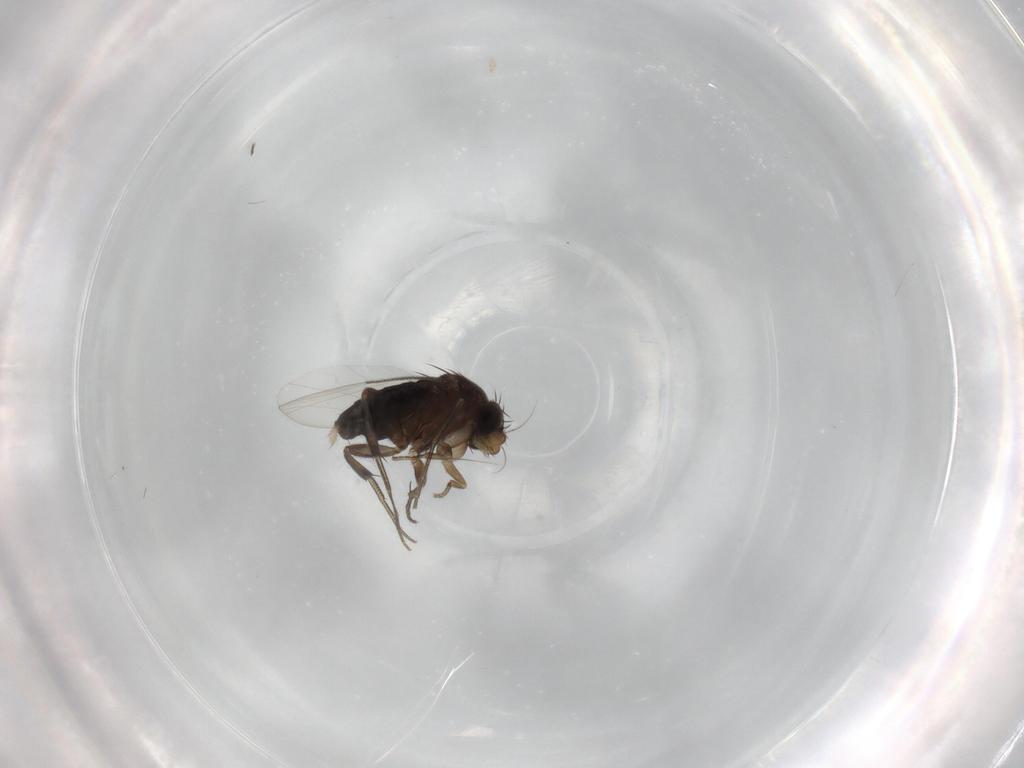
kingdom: Animalia
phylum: Arthropoda
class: Insecta
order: Diptera
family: Phoridae
